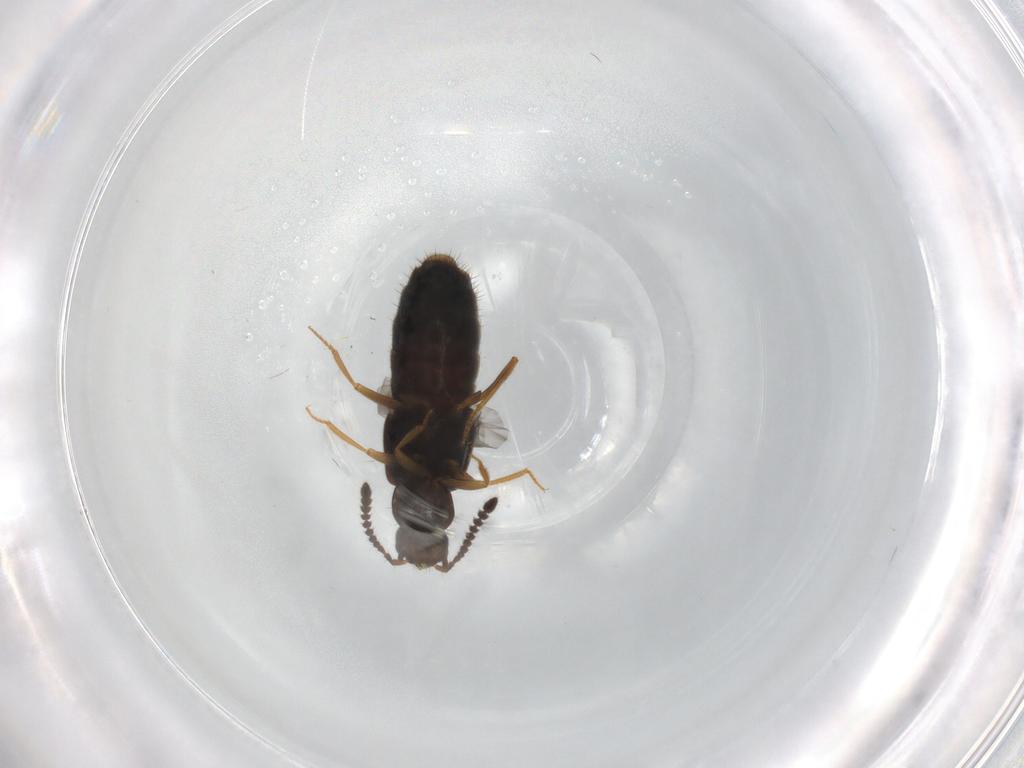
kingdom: Animalia
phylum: Arthropoda
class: Insecta
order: Coleoptera
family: Staphylinidae
